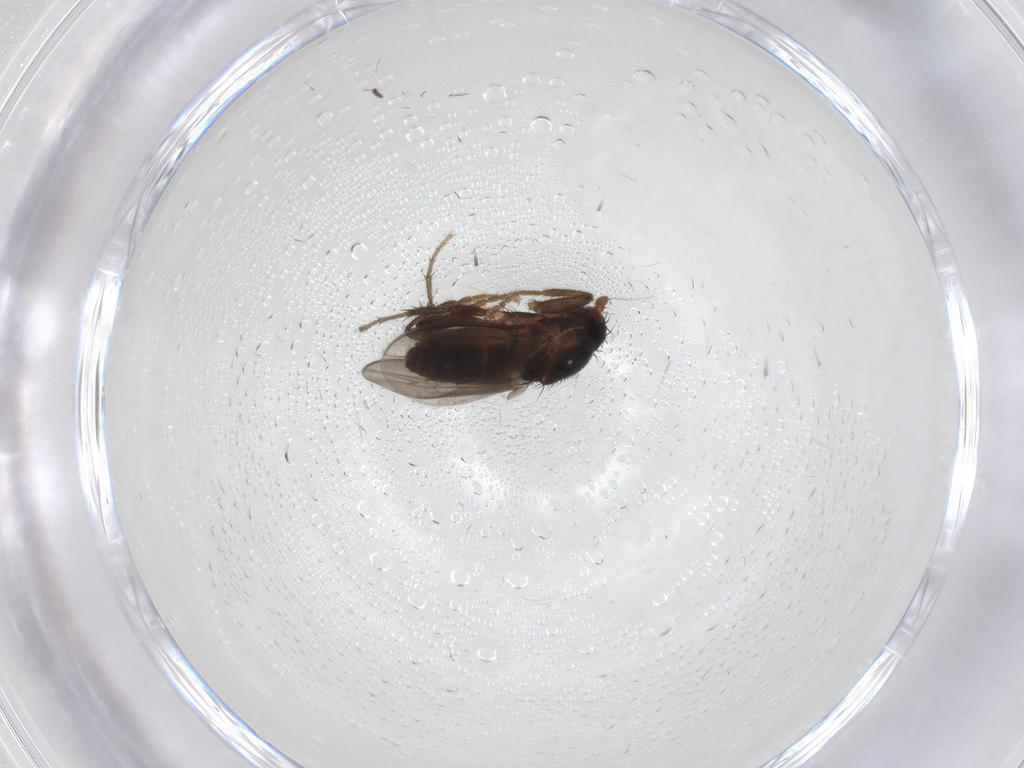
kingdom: Animalia
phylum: Arthropoda
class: Insecta
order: Diptera
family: Sphaeroceridae
